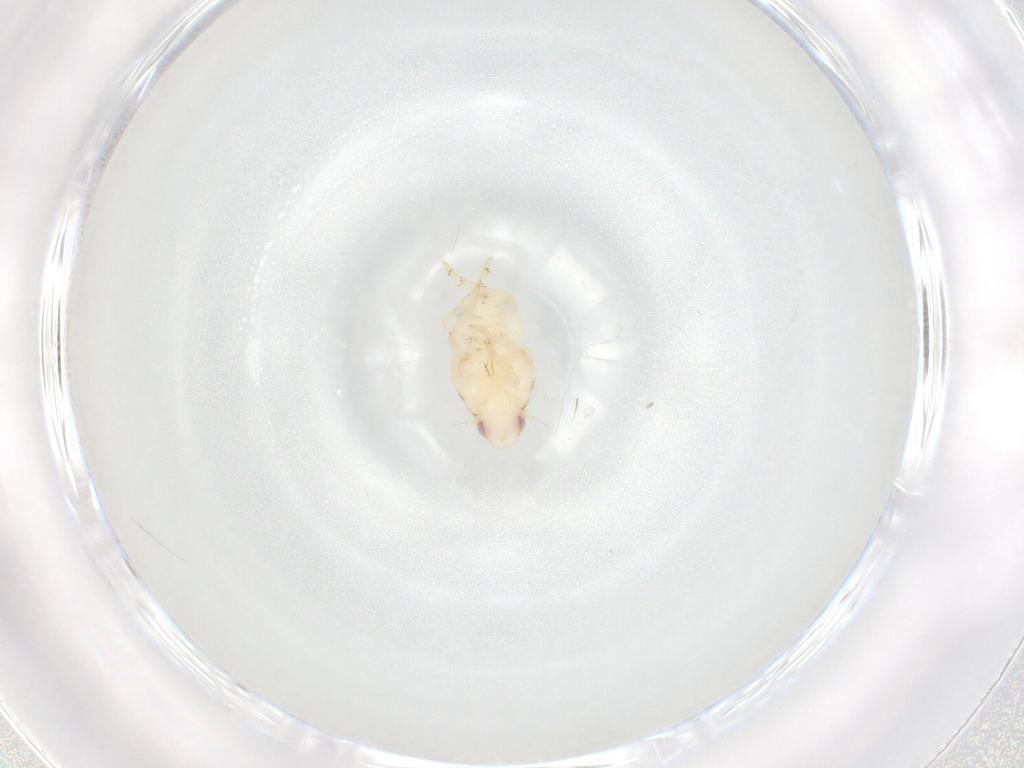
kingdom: Animalia
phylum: Arthropoda
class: Insecta
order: Hemiptera
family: Flatidae
